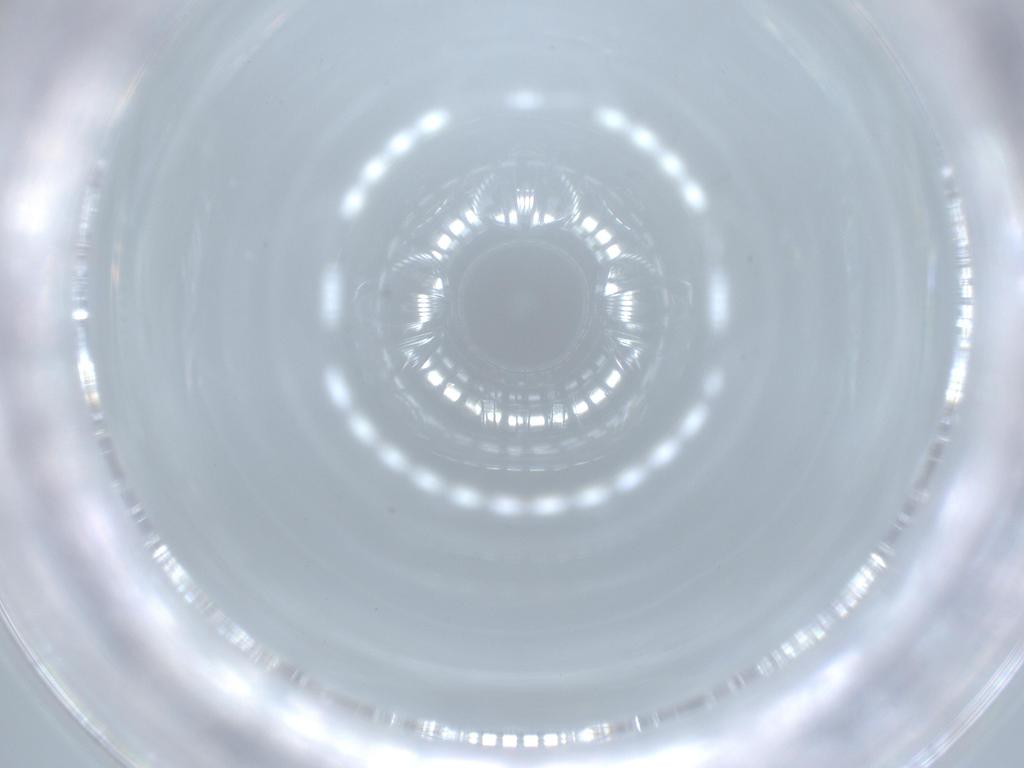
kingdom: Animalia
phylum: Arthropoda
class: Insecta
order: Diptera
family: Chironomidae
